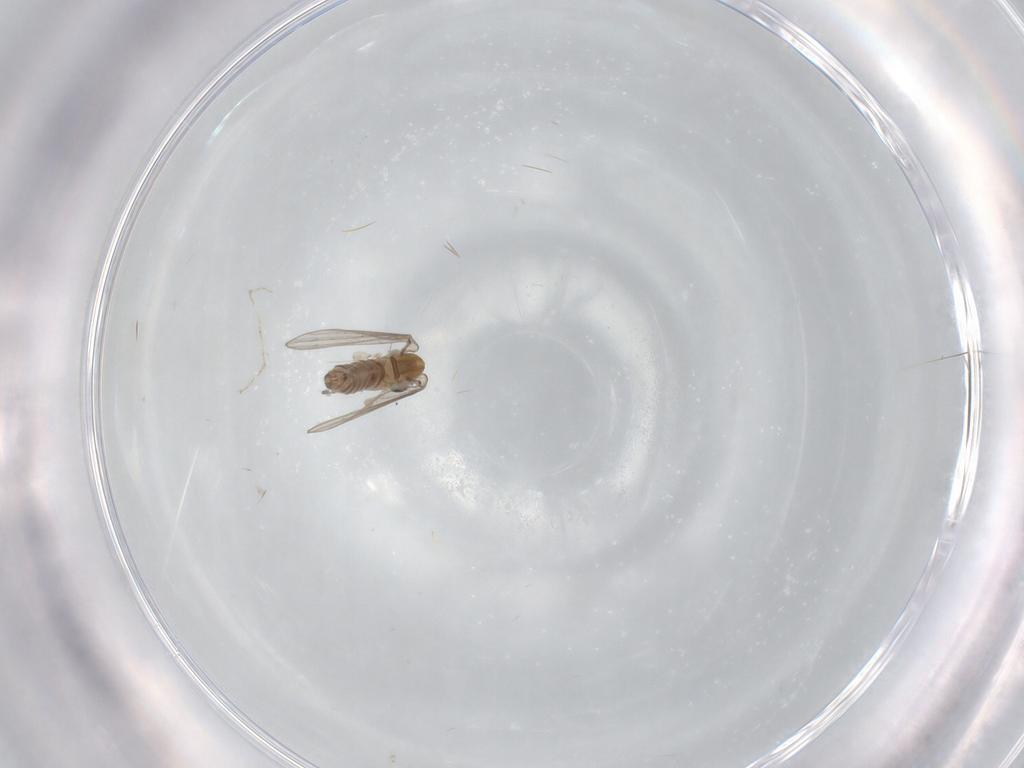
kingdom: Animalia
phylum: Arthropoda
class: Insecta
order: Diptera
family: Psychodidae
